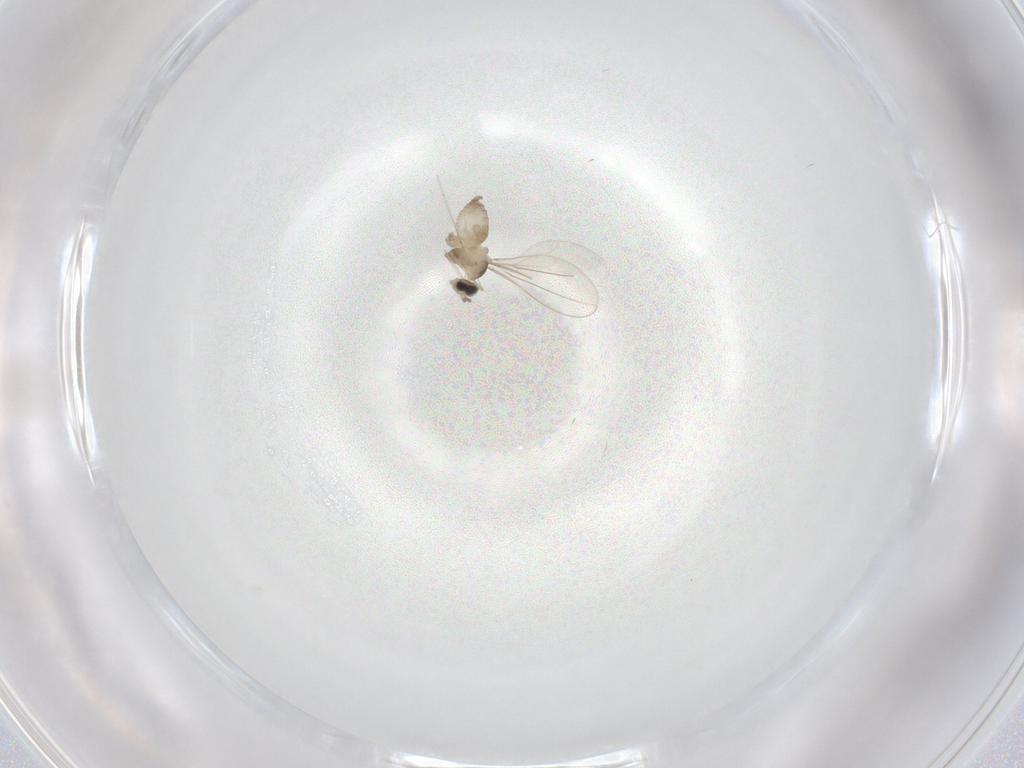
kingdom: Animalia
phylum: Arthropoda
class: Insecta
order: Diptera
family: Cecidomyiidae
